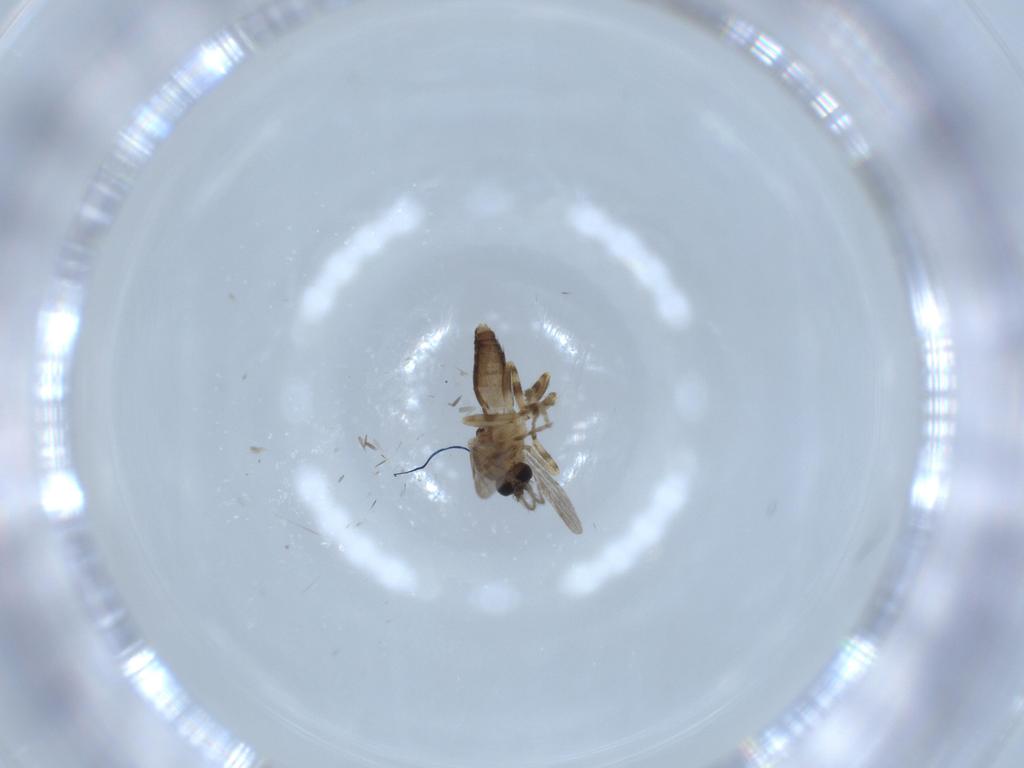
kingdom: Animalia
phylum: Arthropoda
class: Insecta
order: Diptera
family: Sciaridae
